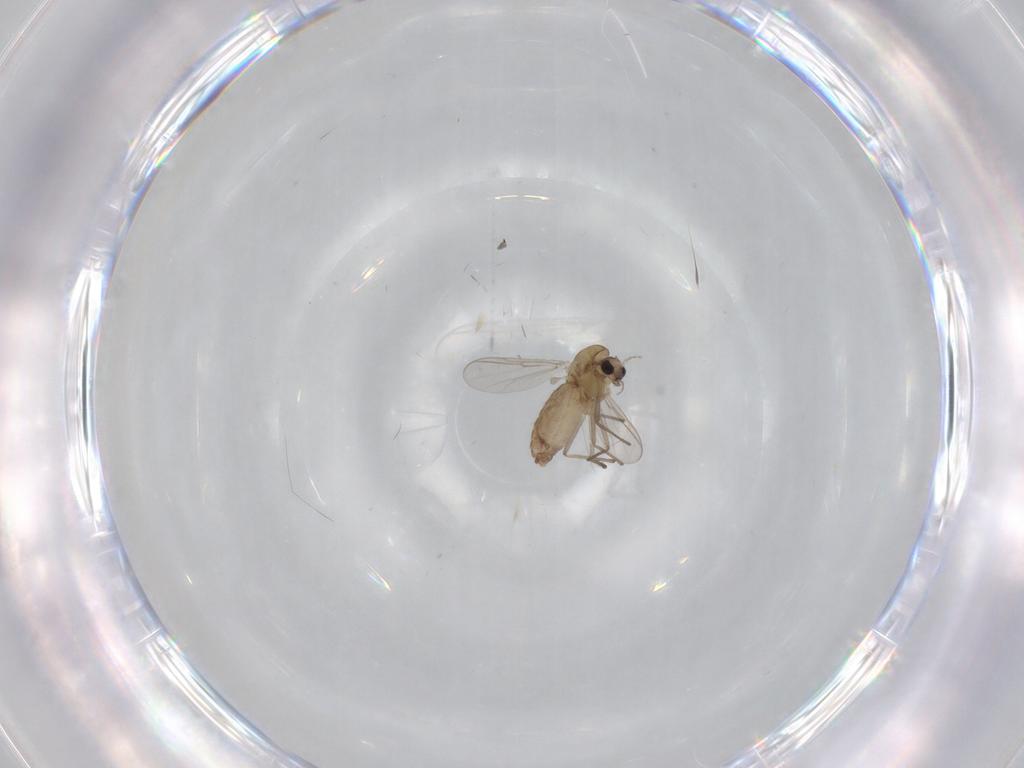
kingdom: Animalia
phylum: Arthropoda
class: Insecta
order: Diptera
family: Chironomidae
